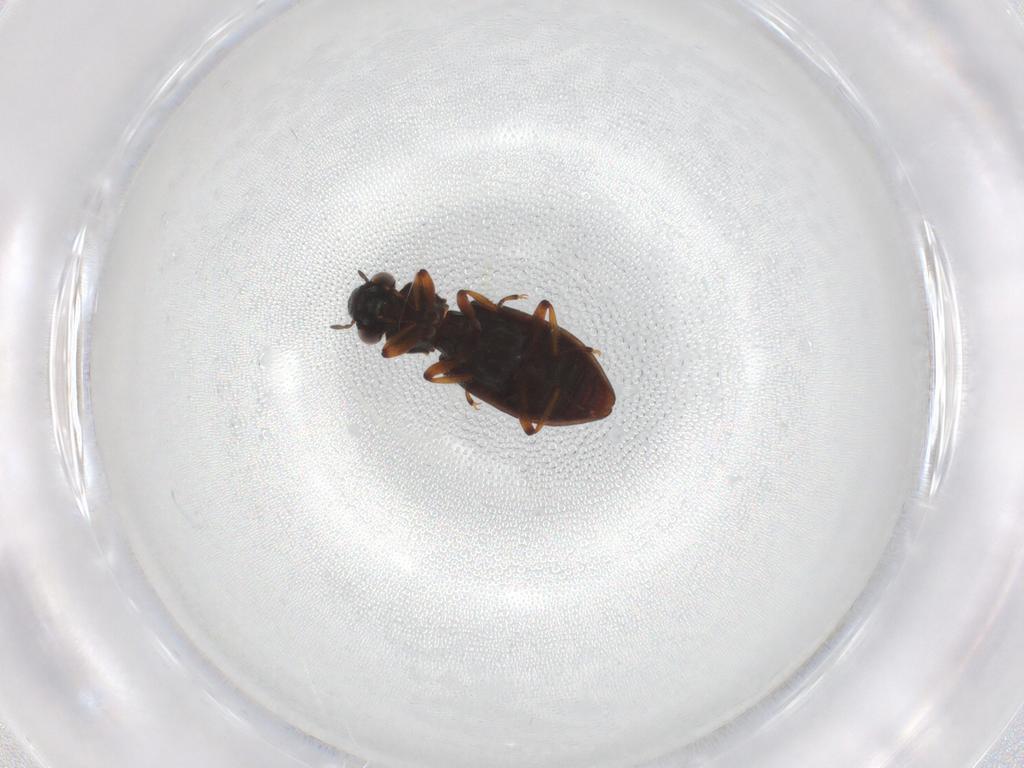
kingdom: Animalia
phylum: Arthropoda
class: Insecta
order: Coleoptera
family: Hydrophilidae
